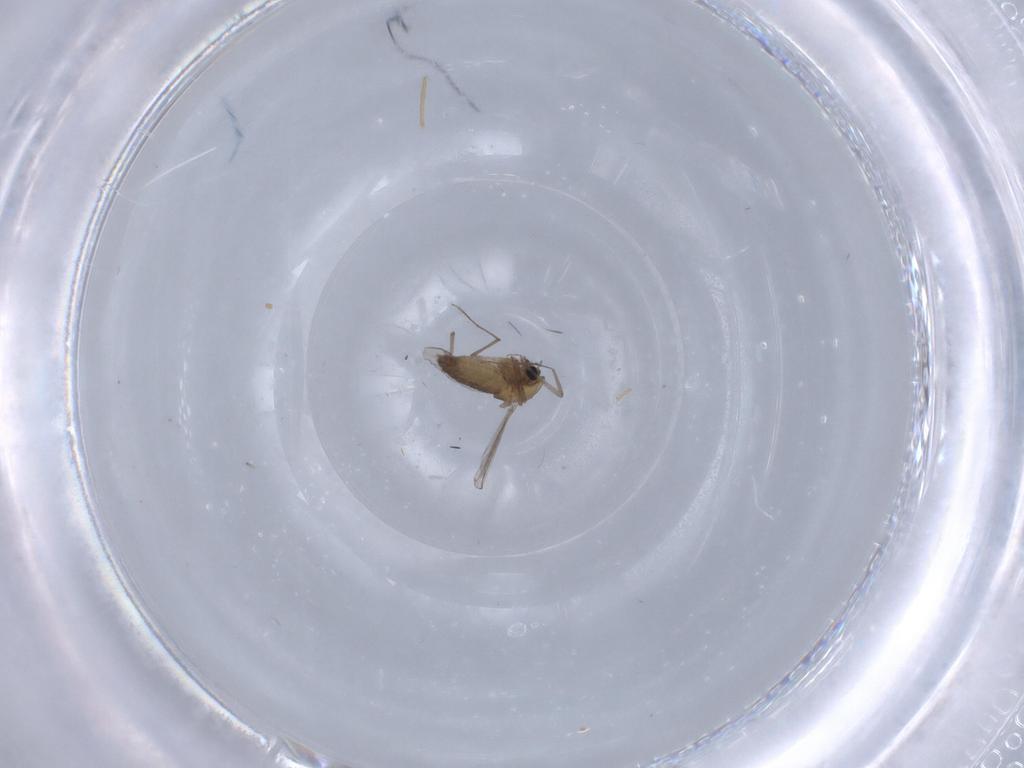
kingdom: Animalia
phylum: Arthropoda
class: Insecta
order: Diptera
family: Chironomidae
